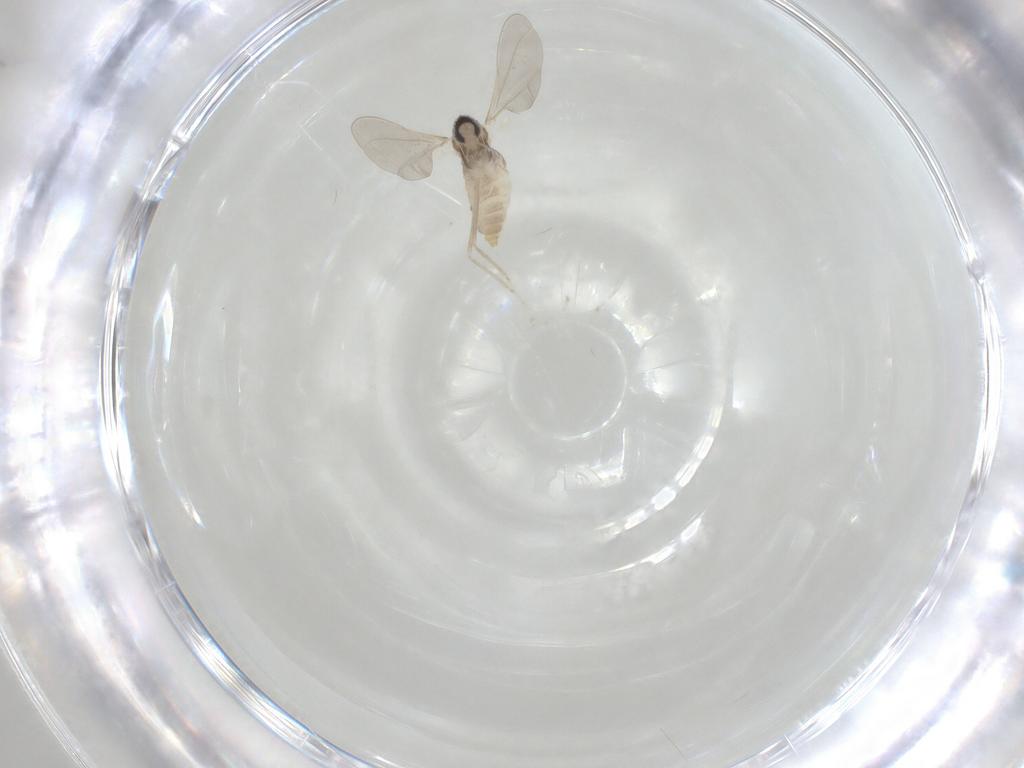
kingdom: Animalia
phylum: Arthropoda
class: Insecta
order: Diptera
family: Cecidomyiidae
